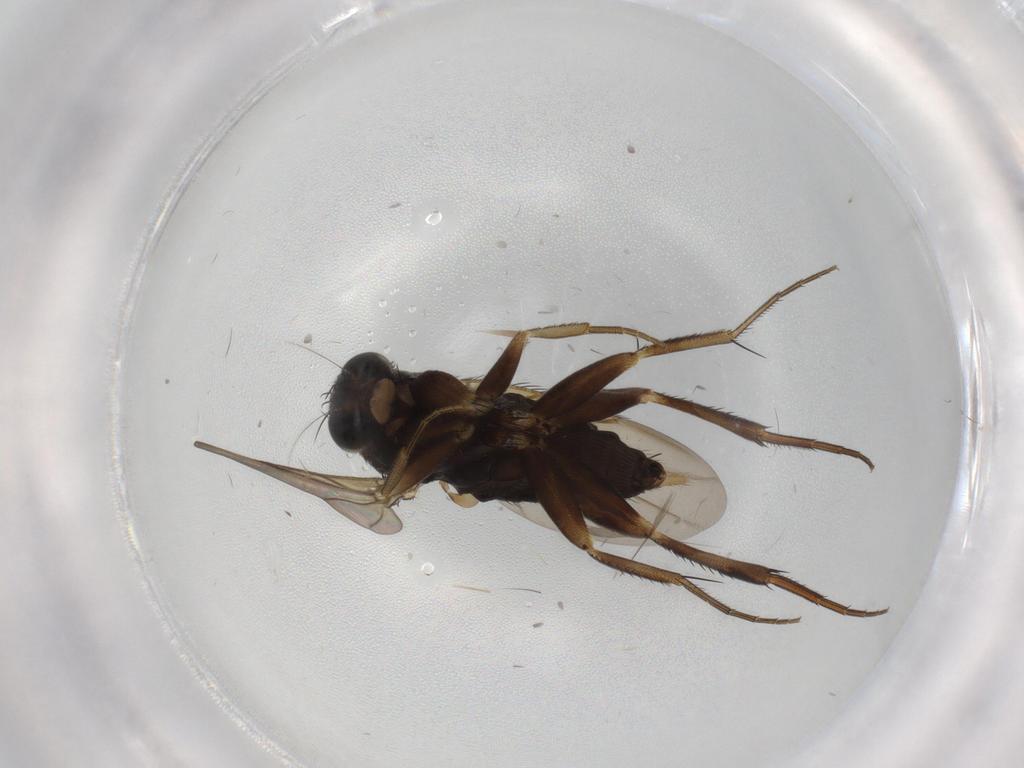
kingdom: Animalia
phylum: Arthropoda
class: Insecta
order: Diptera
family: Phoridae
